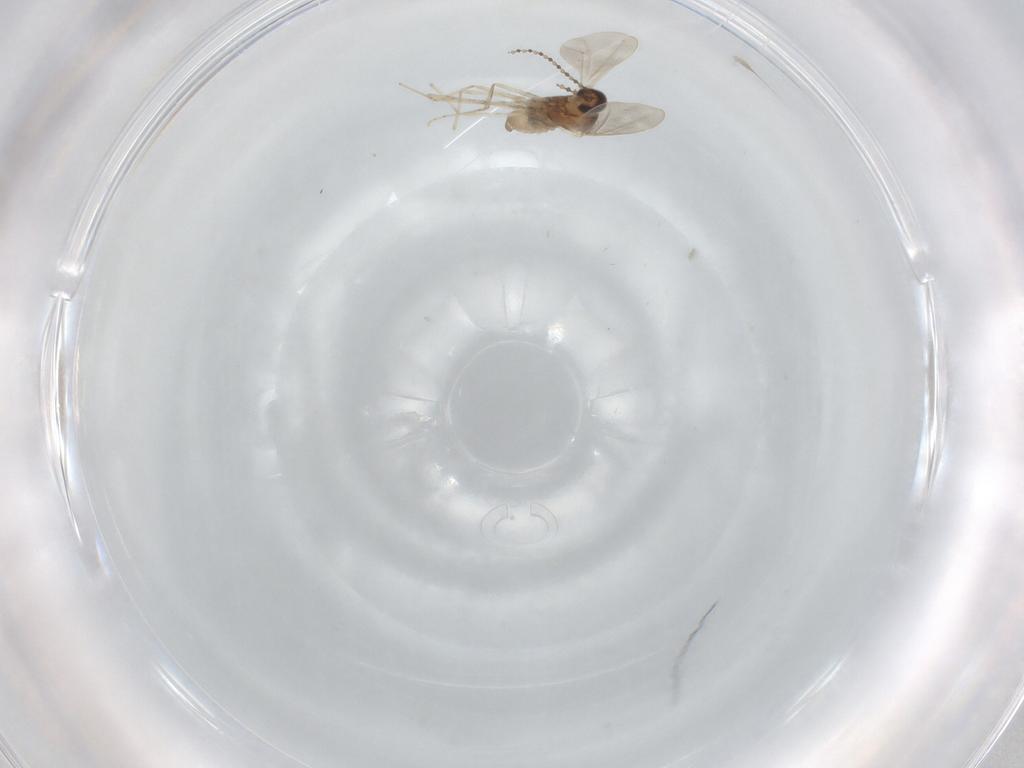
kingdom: Animalia
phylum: Arthropoda
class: Insecta
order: Diptera
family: Cecidomyiidae
